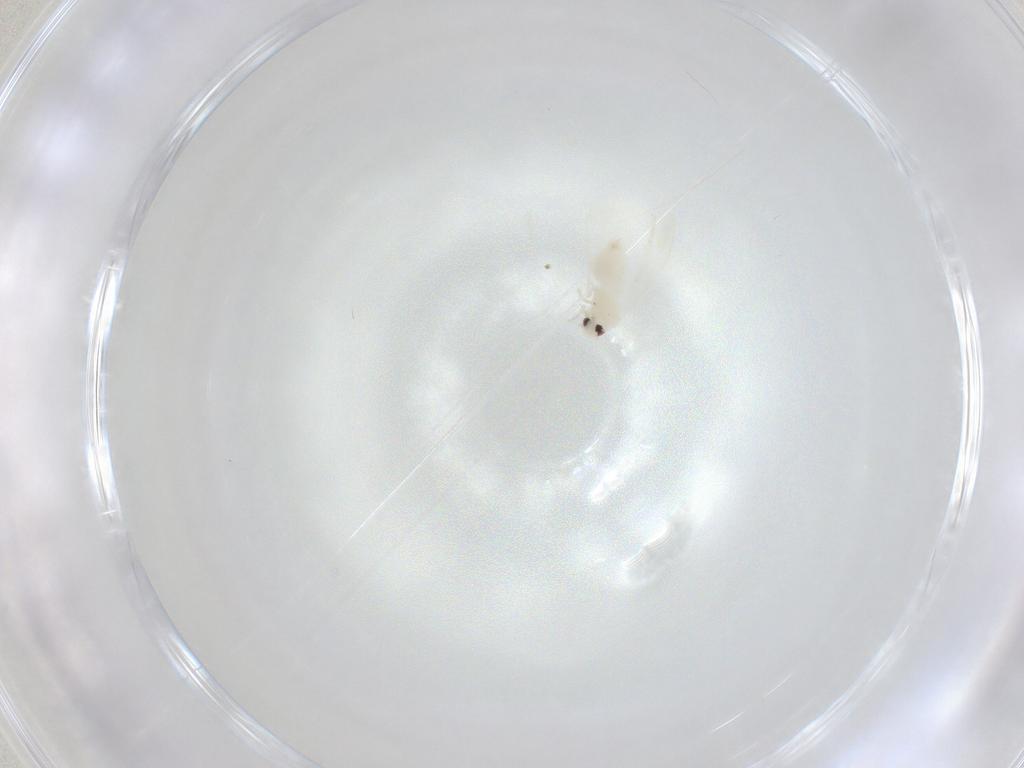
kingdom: Animalia
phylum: Arthropoda
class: Insecta
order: Hemiptera
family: Aleyrodidae
